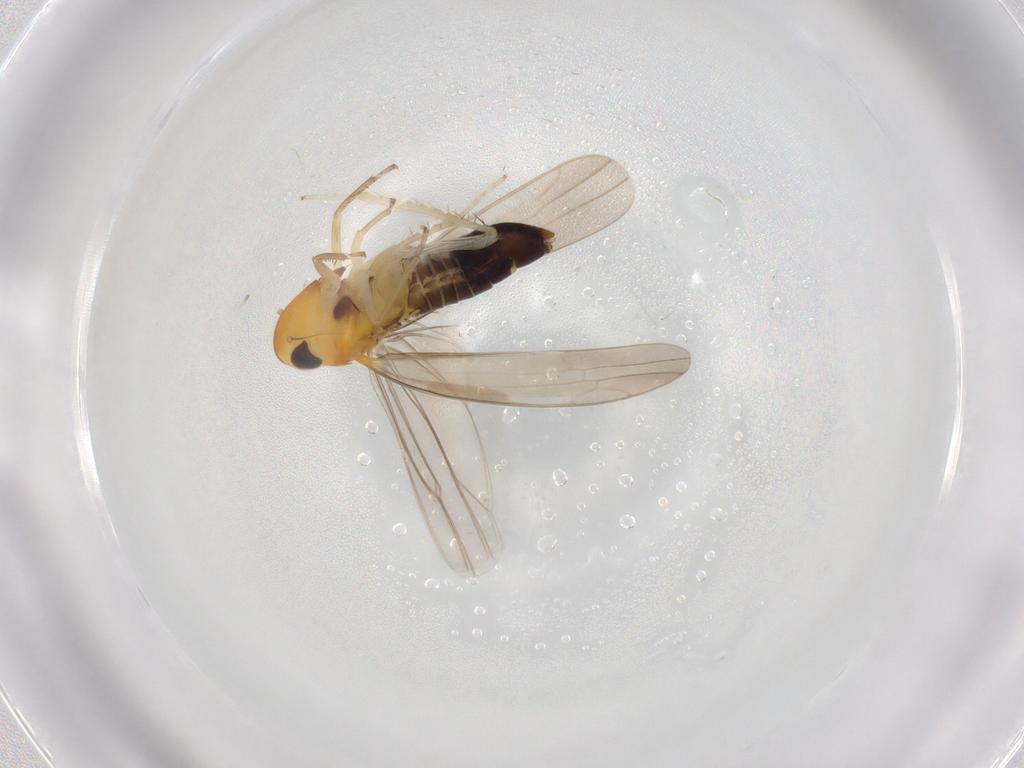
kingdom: Animalia
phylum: Arthropoda
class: Insecta
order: Hemiptera
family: Cicadellidae
